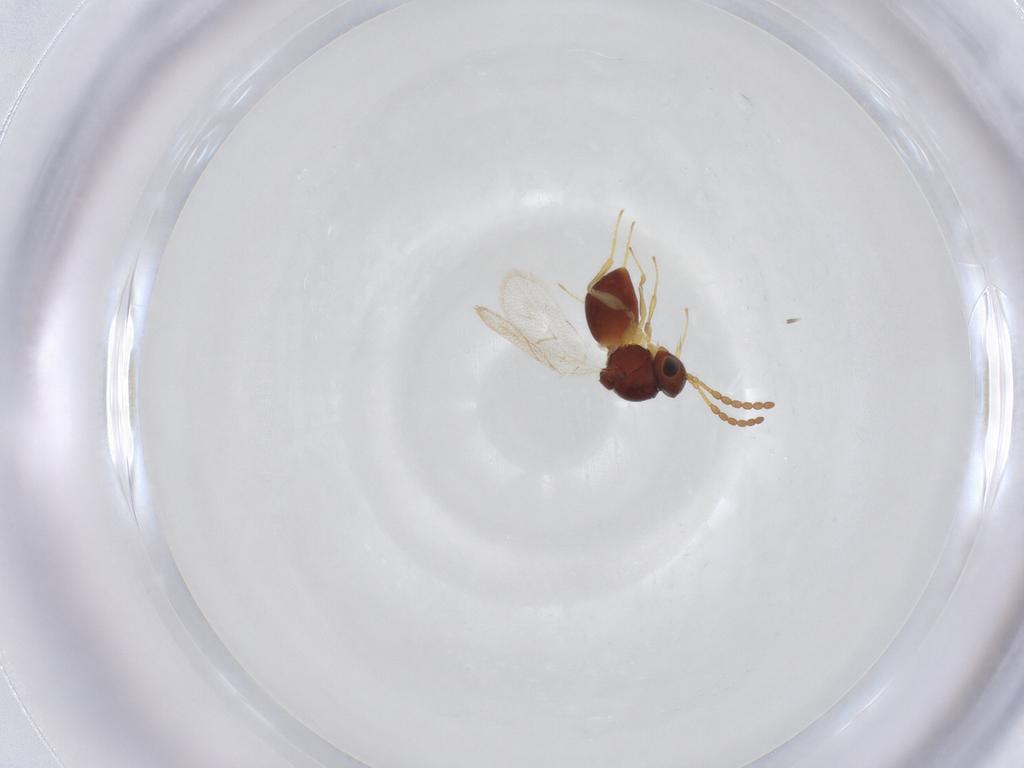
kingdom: Animalia
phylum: Arthropoda
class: Insecta
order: Hymenoptera
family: Figitidae
